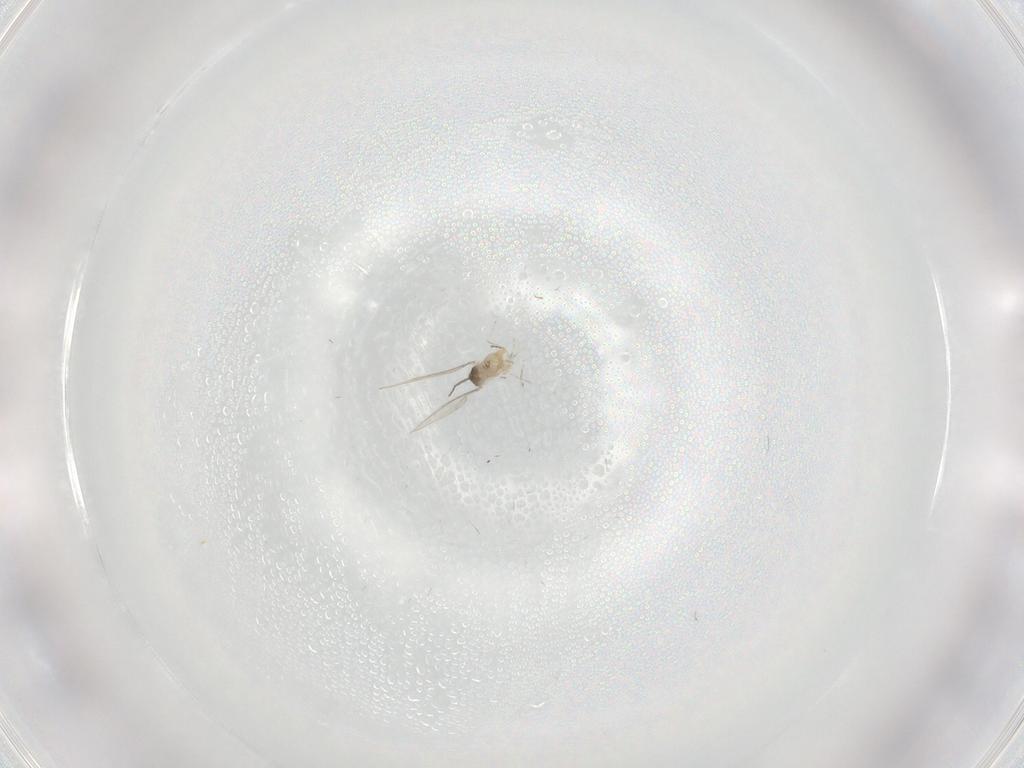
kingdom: Animalia
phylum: Arthropoda
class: Insecta
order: Diptera
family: Cecidomyiidae
